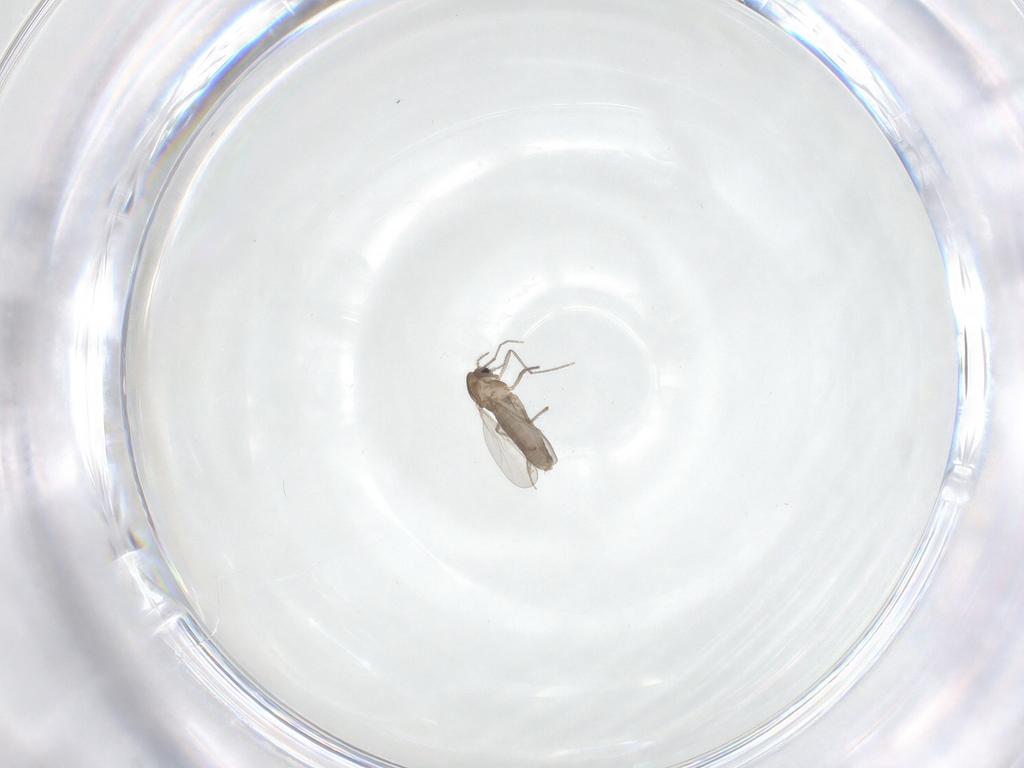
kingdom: Animalia
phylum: Arthropoda
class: Insecta
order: Diptera
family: Chironomidae
